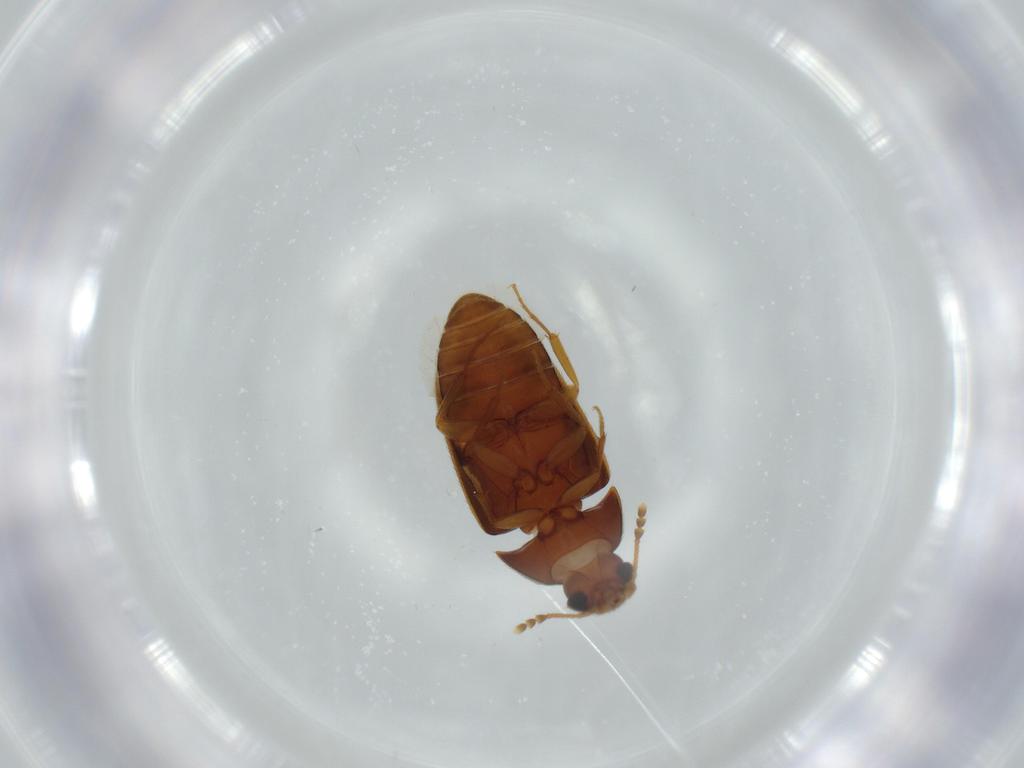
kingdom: Animalia
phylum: Arthropoda
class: Insecta
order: Coleoptera
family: Mycetophagidae
